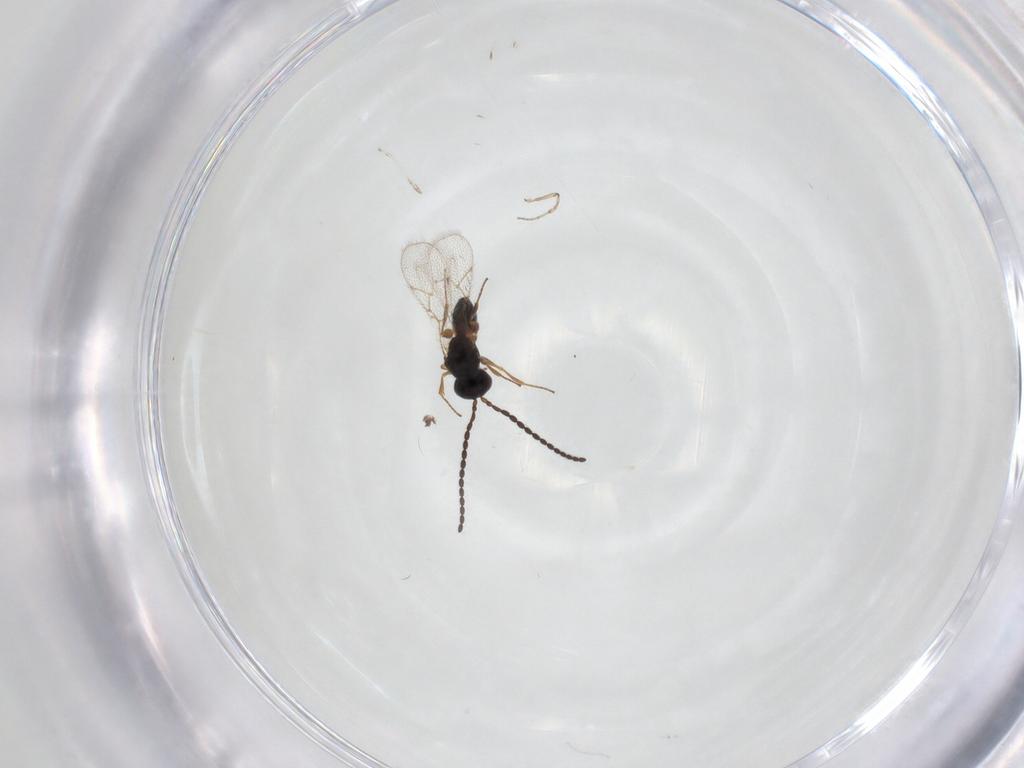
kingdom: Animalia
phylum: Arthropoda
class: Insecta
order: Hymenoptera
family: Figitidae
